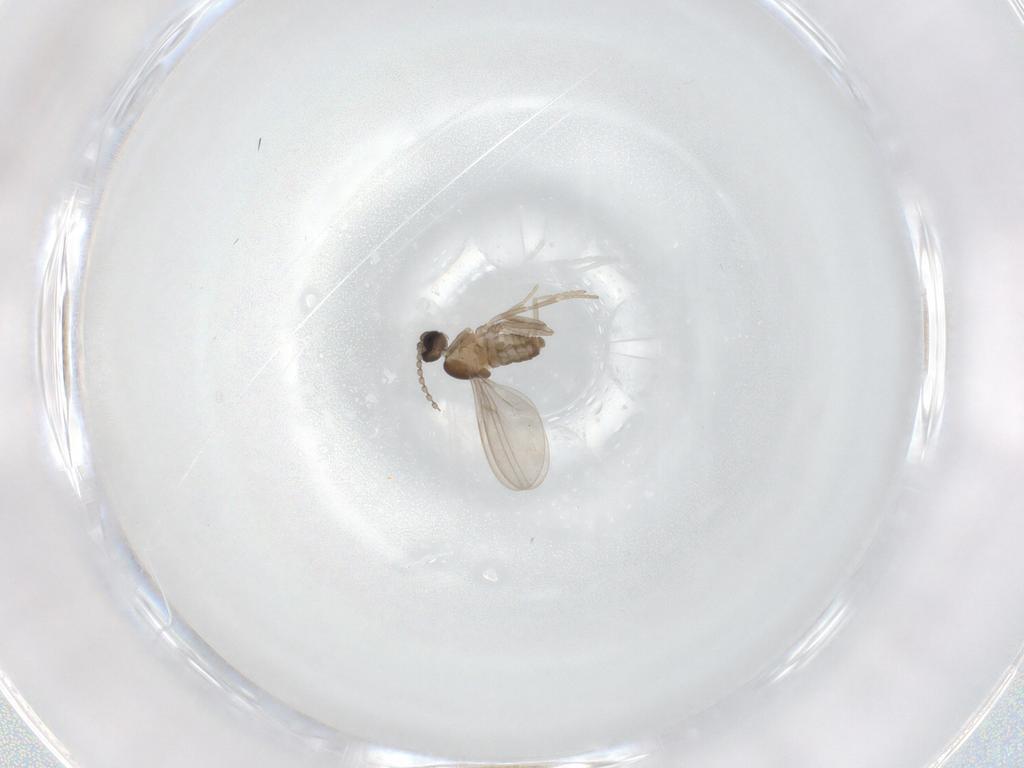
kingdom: Animalia
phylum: Arthropoda
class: Insecta
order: Diptera
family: Cecidomyiidae
